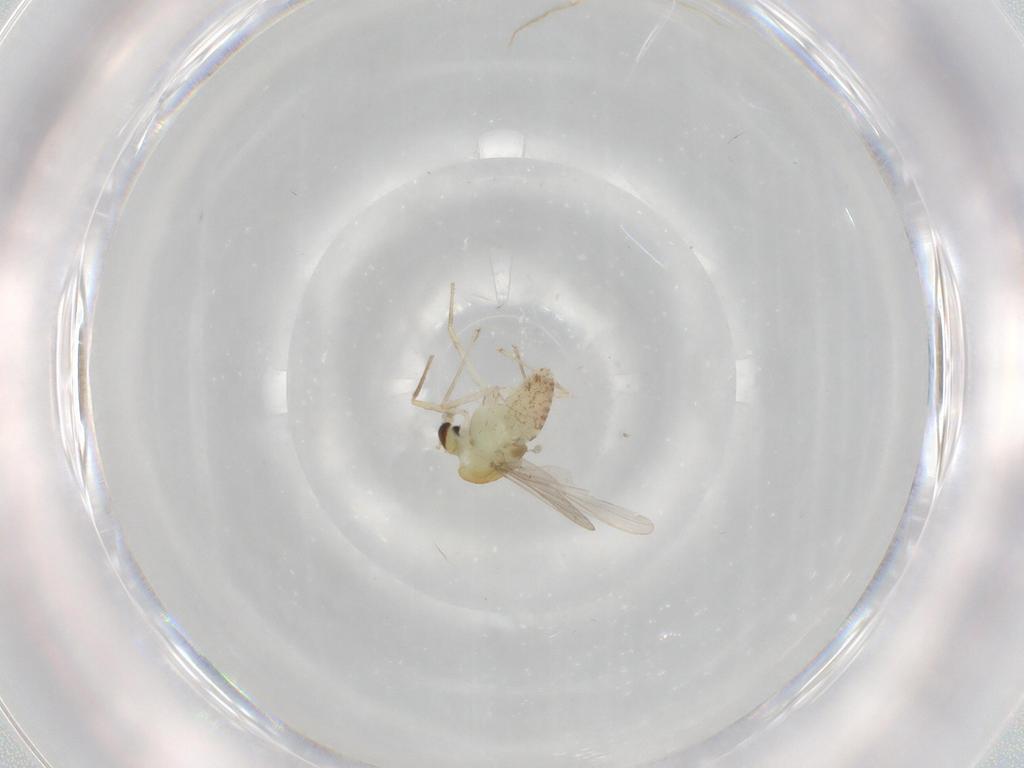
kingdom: Animalia
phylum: Arthropoda
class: Insecta
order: Diptera
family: Chironomidae
